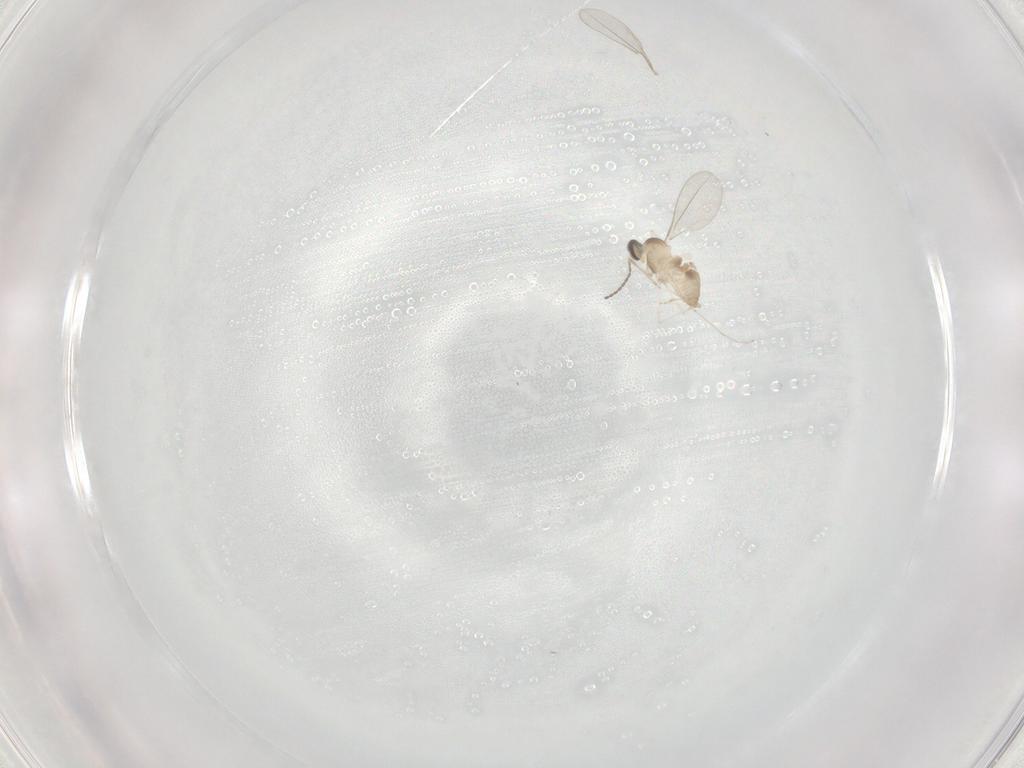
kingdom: Animalia
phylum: Arthropoda
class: Insecta
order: Diptera
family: Cecidomyiidae
